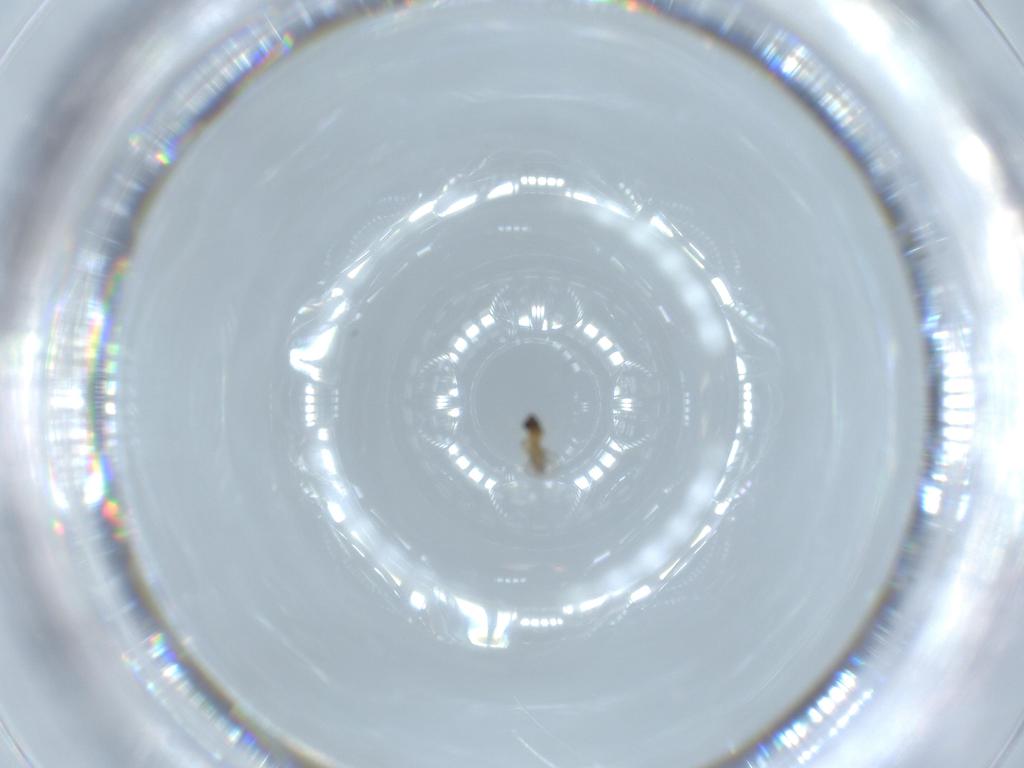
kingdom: Animalia
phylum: Arthropoda
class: Insecta
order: Diptera
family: Cecidomyiidae
